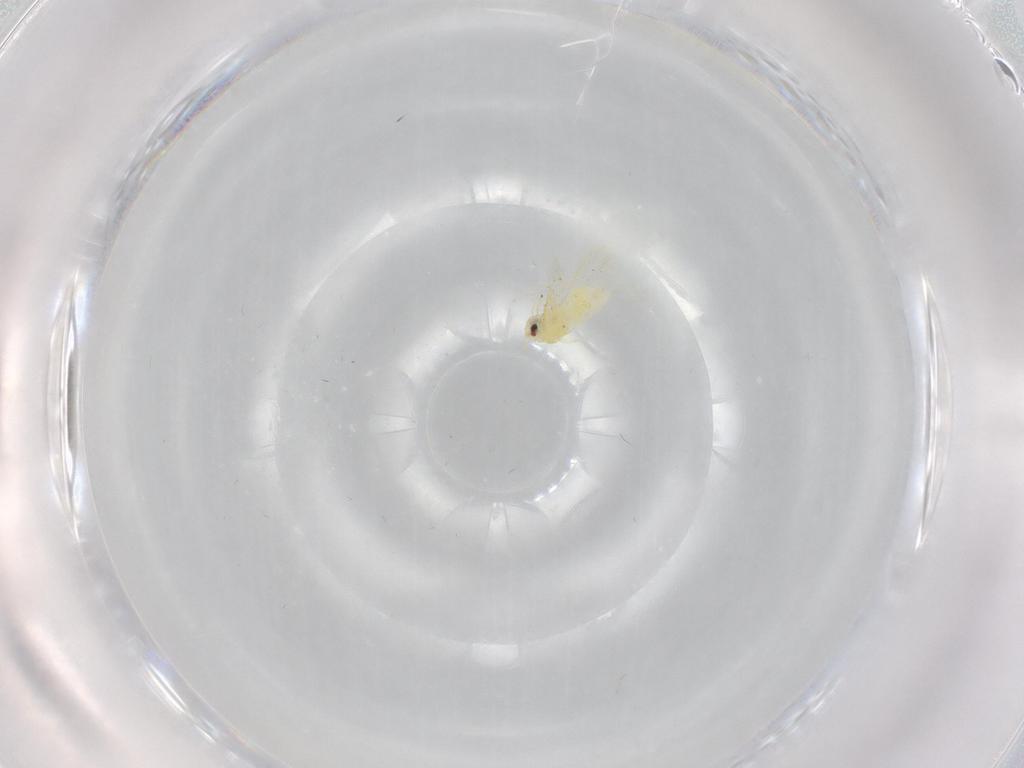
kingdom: Animalia
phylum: Arthropoda
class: Insecta
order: Hemiptera
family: Aleyrodidae
